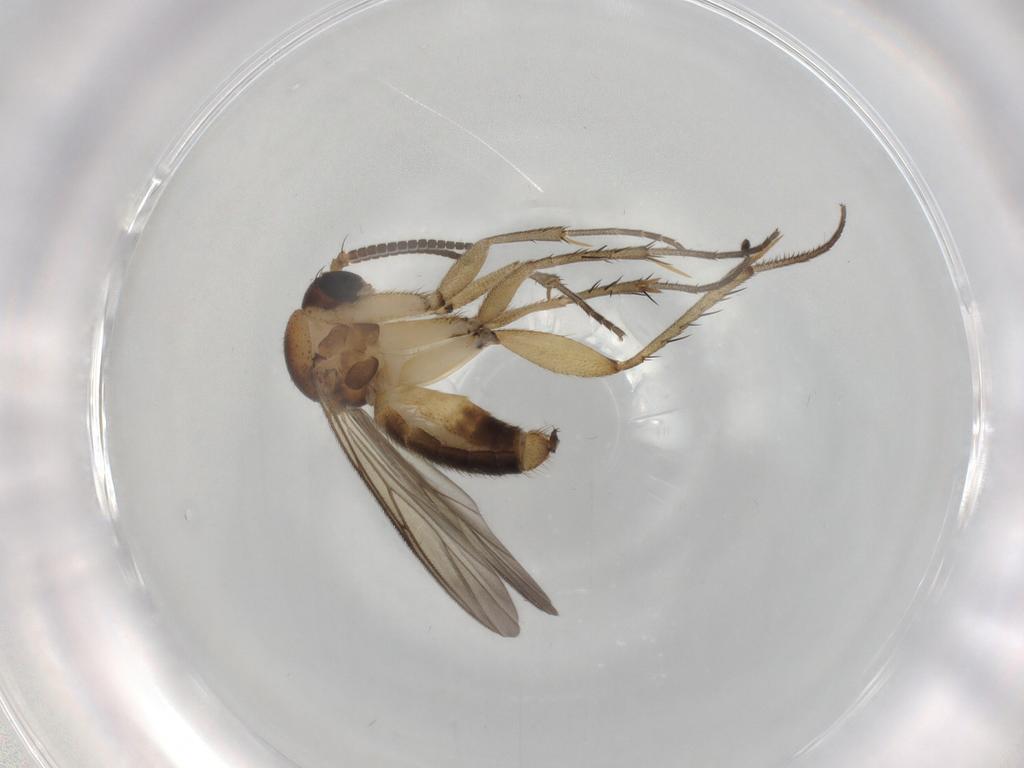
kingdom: Animalia
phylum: Arthropoda
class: Insecta
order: Diptera
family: Heleomyzidae
